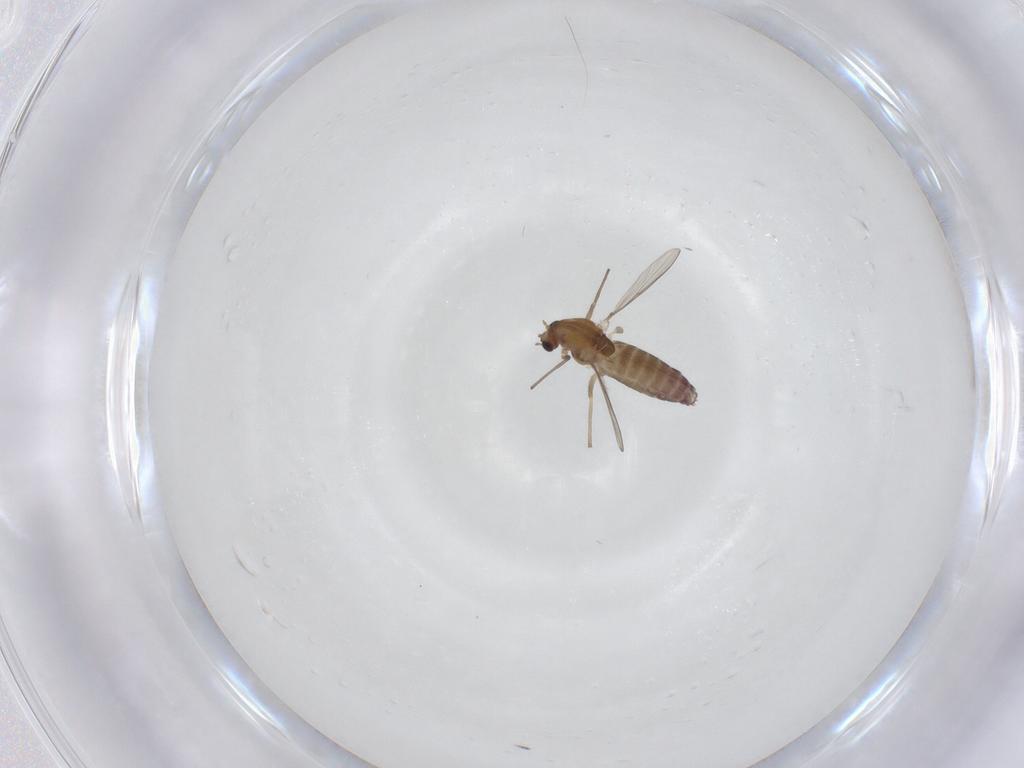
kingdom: Animalia
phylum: Arthropoda
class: Insecta
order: Diptera
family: Chironomidae
